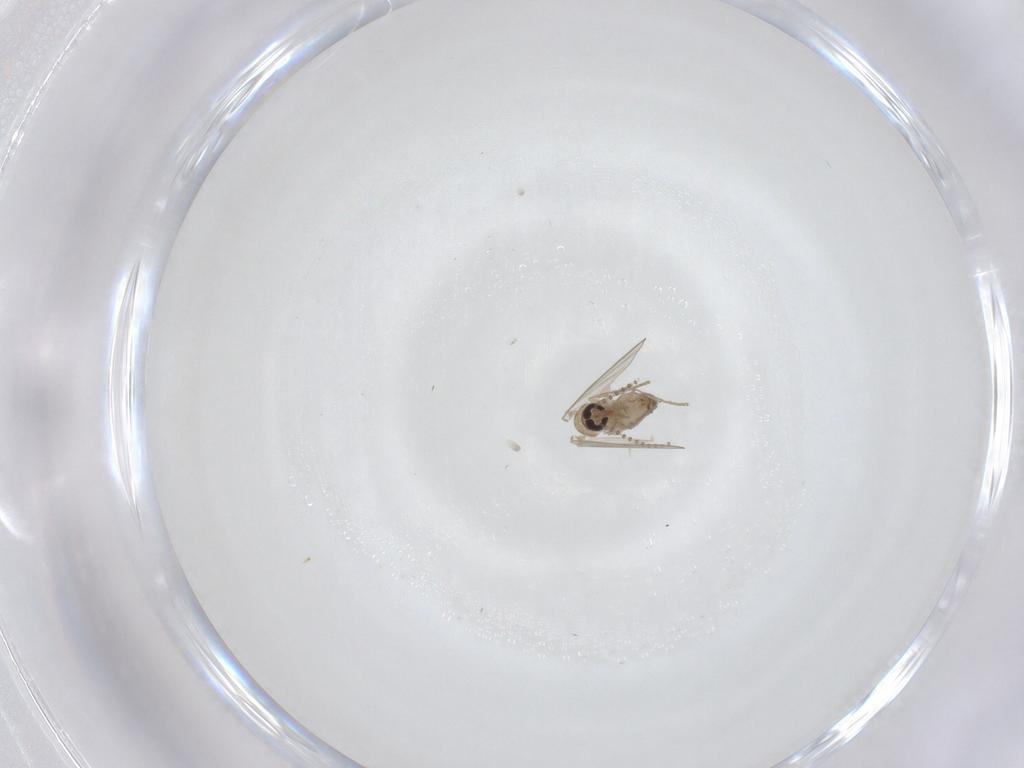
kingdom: Animalia
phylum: Arthropoda
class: Insecta
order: Diptera
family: Psychodidae
